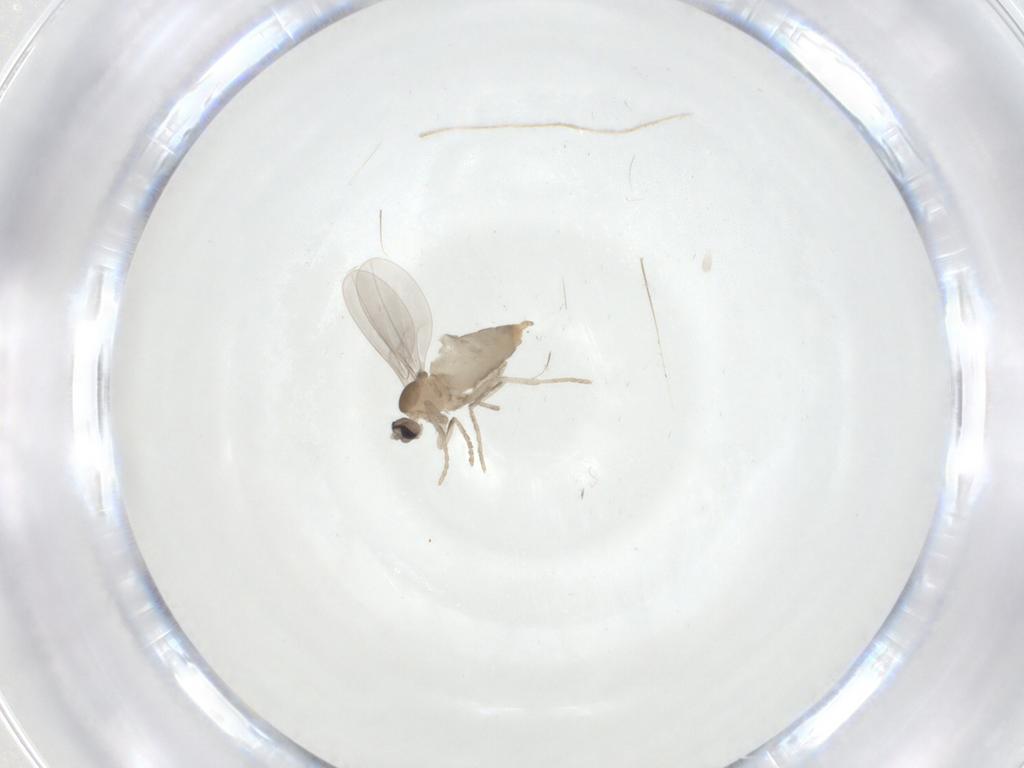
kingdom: Animalia
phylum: Arthropoda
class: Insecta
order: Diptera
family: Cecidomyiidae
